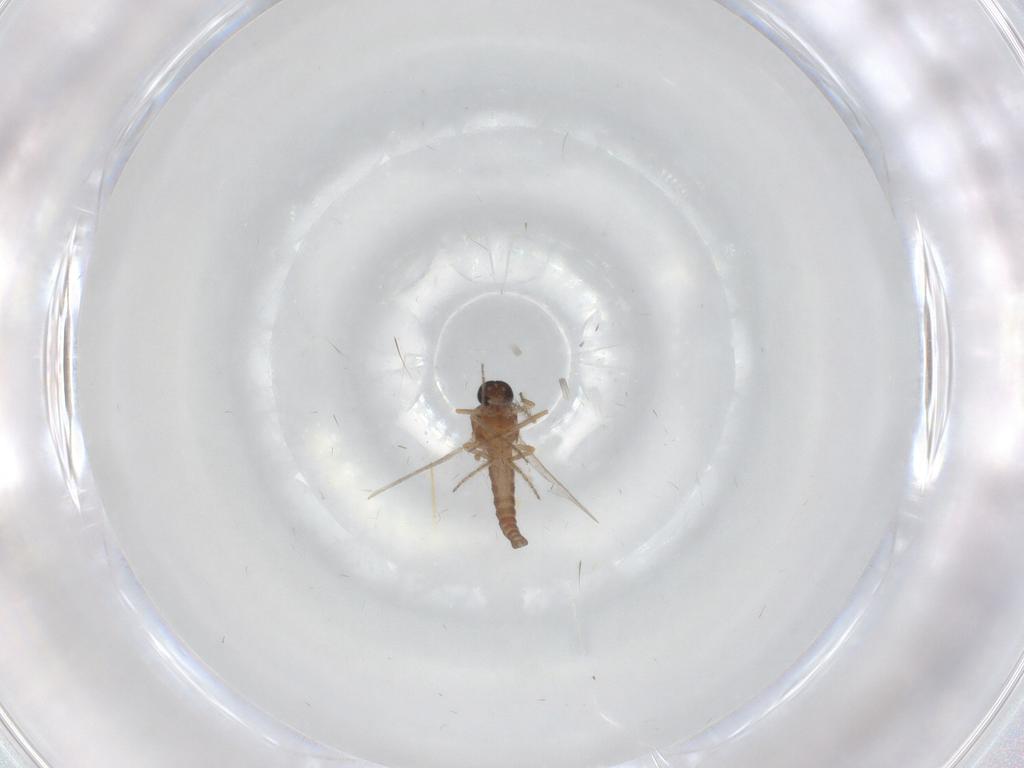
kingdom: Animalia
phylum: Arthropoda
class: Insecta
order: Diptera
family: Ceratopogonidae
